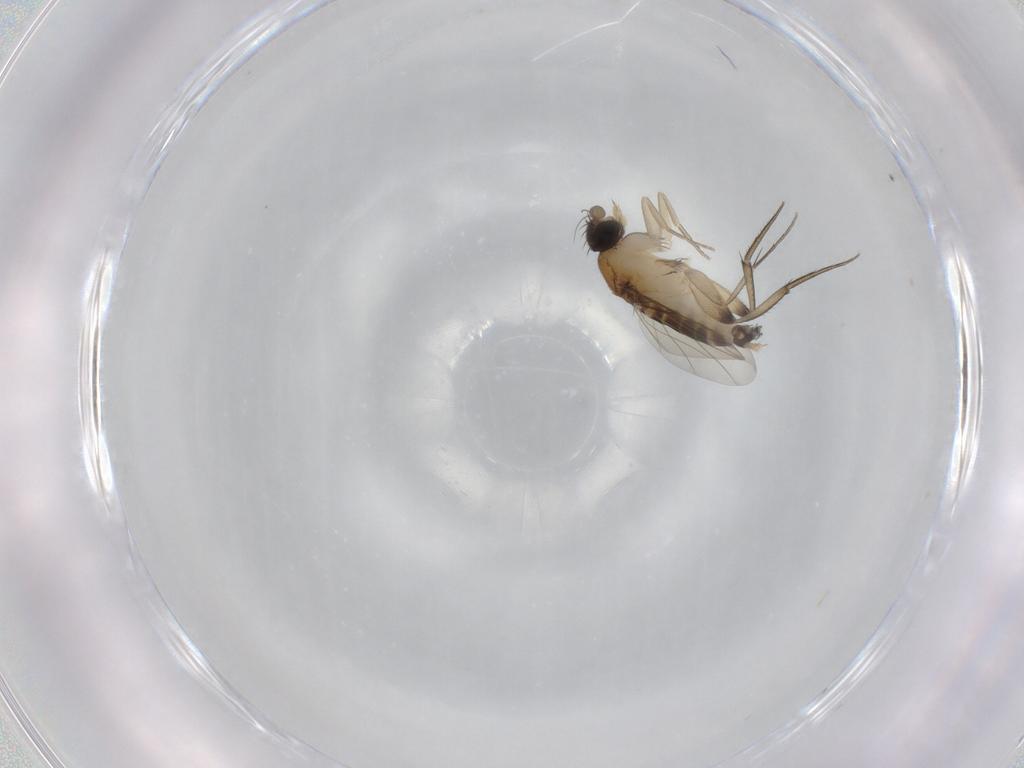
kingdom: Animalia
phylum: Arthropoda
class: Insecta
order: Diptera
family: Phoridae
